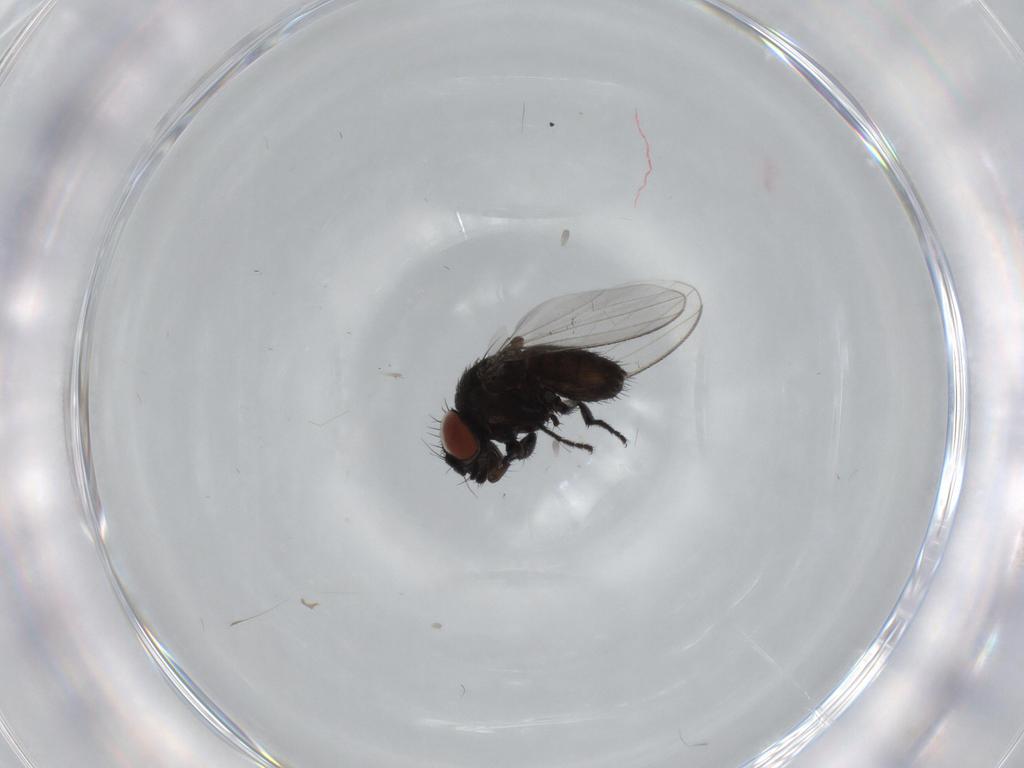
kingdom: Animalia
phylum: Arthropoda
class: Insecta
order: Diptera
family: Milichiidae
